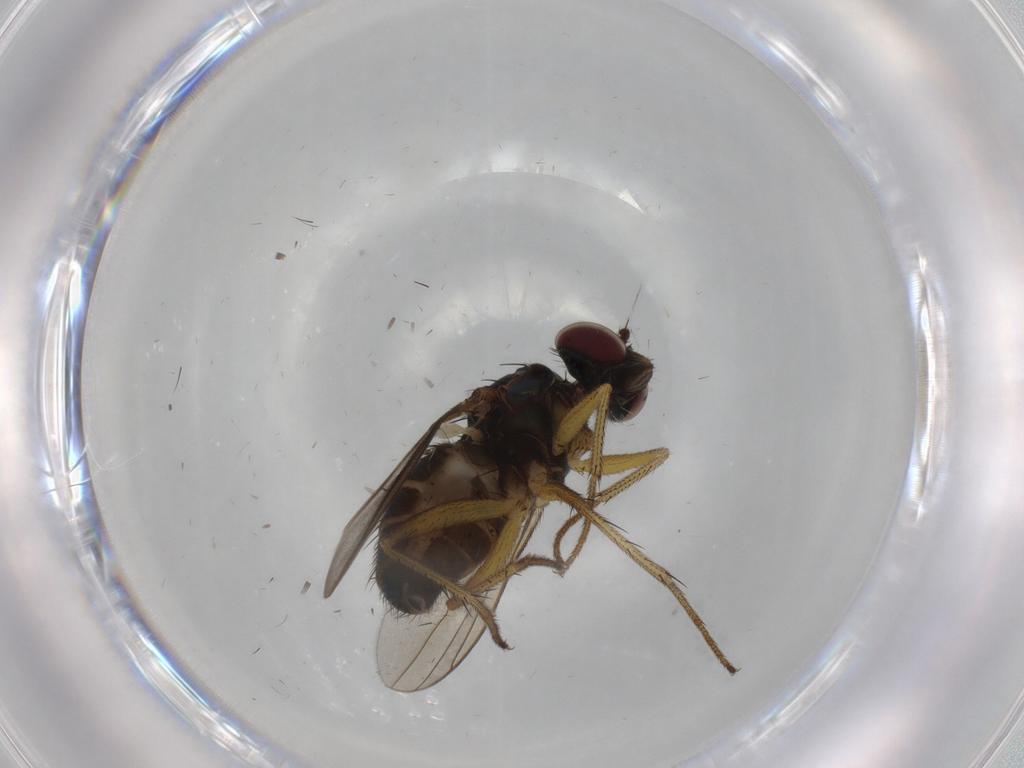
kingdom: Animalia
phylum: Arthropoda
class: Insecta
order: Diptera
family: Dolichopodidae
